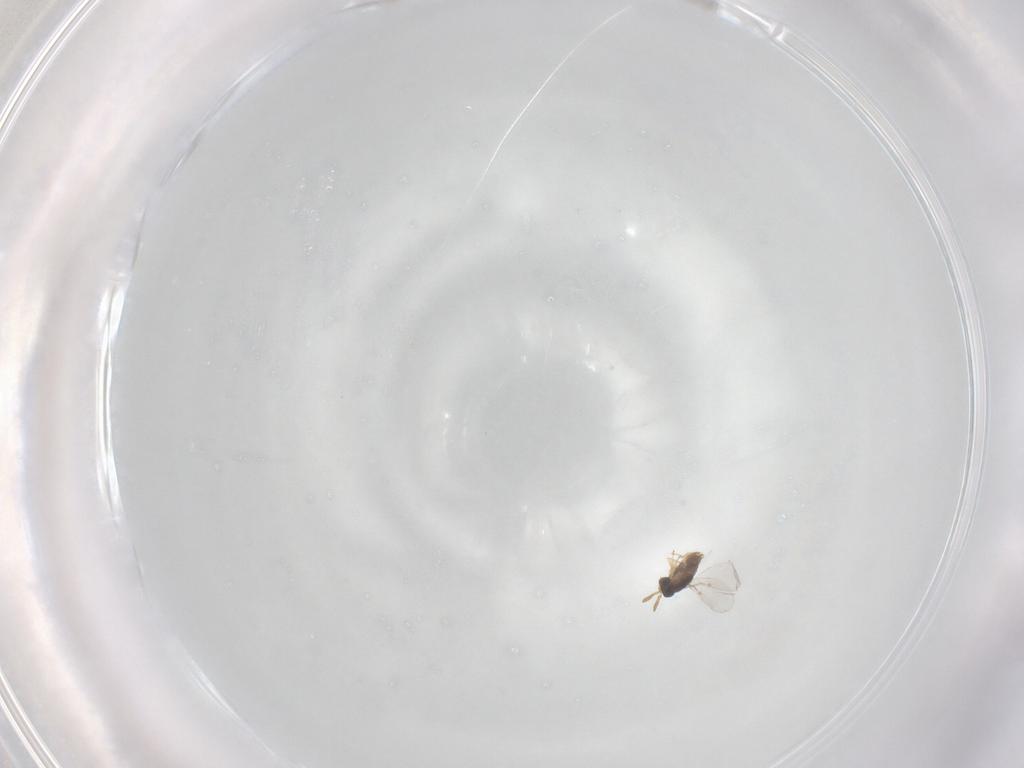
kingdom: Animalia
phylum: Arthropoda
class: Insecta
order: Hymenoptera
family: Encyrtidae
